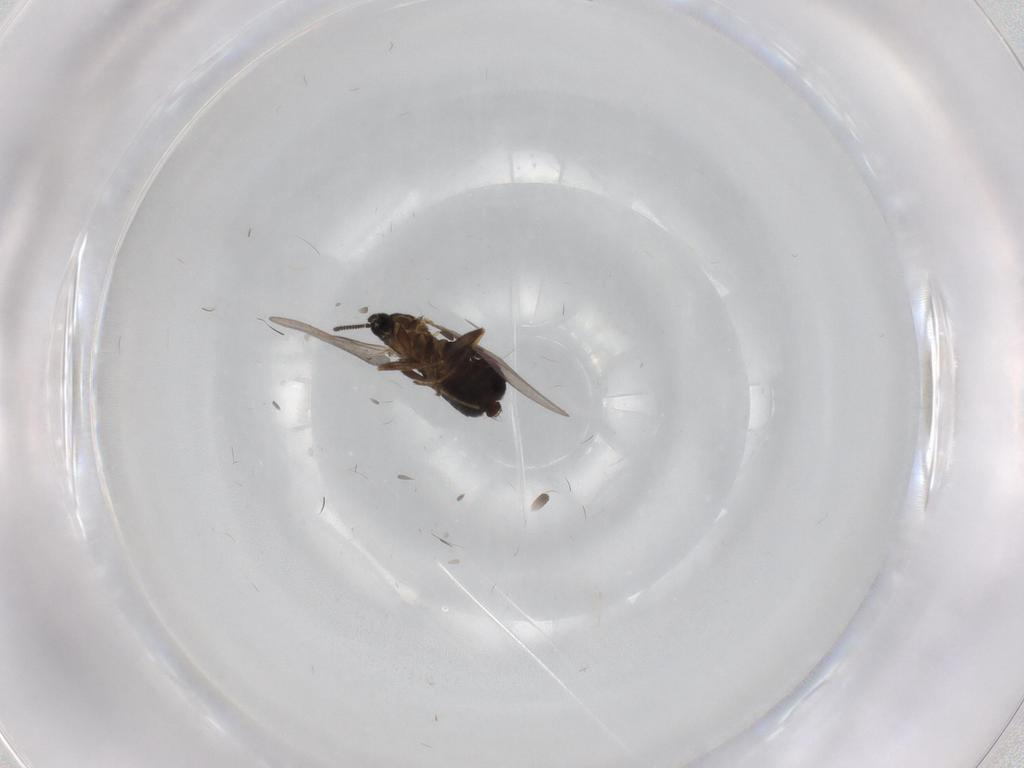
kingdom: Animalia
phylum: Arthropoda
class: Insecta
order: Diptera
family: Scatopsidae
